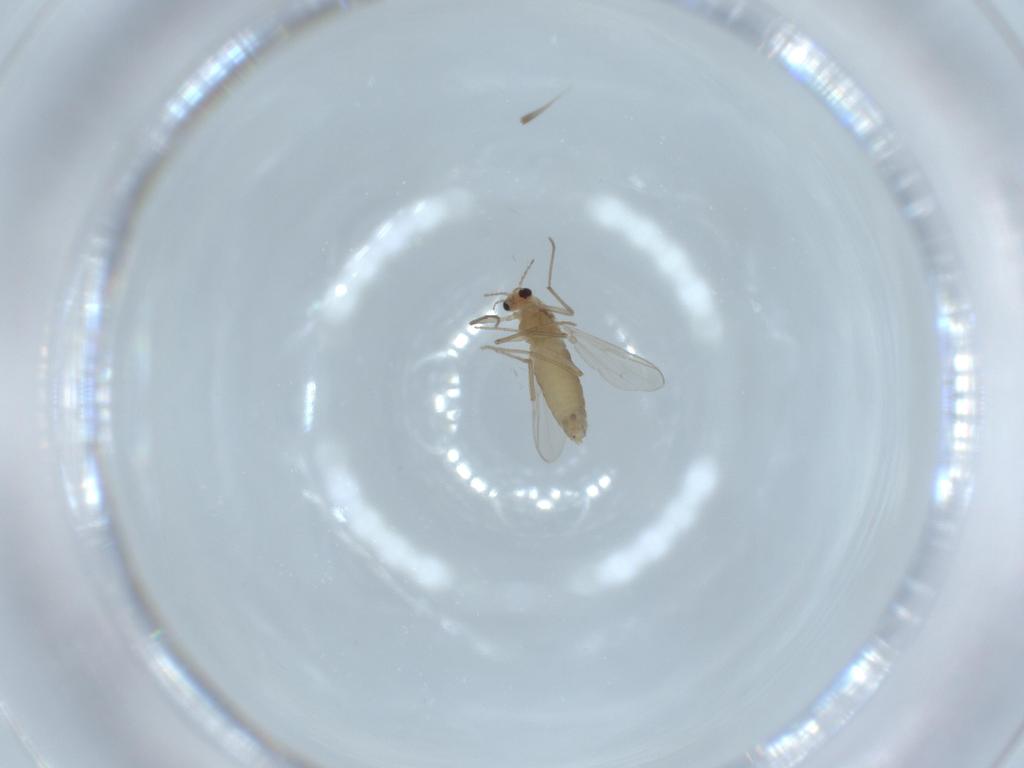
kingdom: Animalia
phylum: Arthropoda
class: Insecta
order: Diptera
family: Chironomidae
